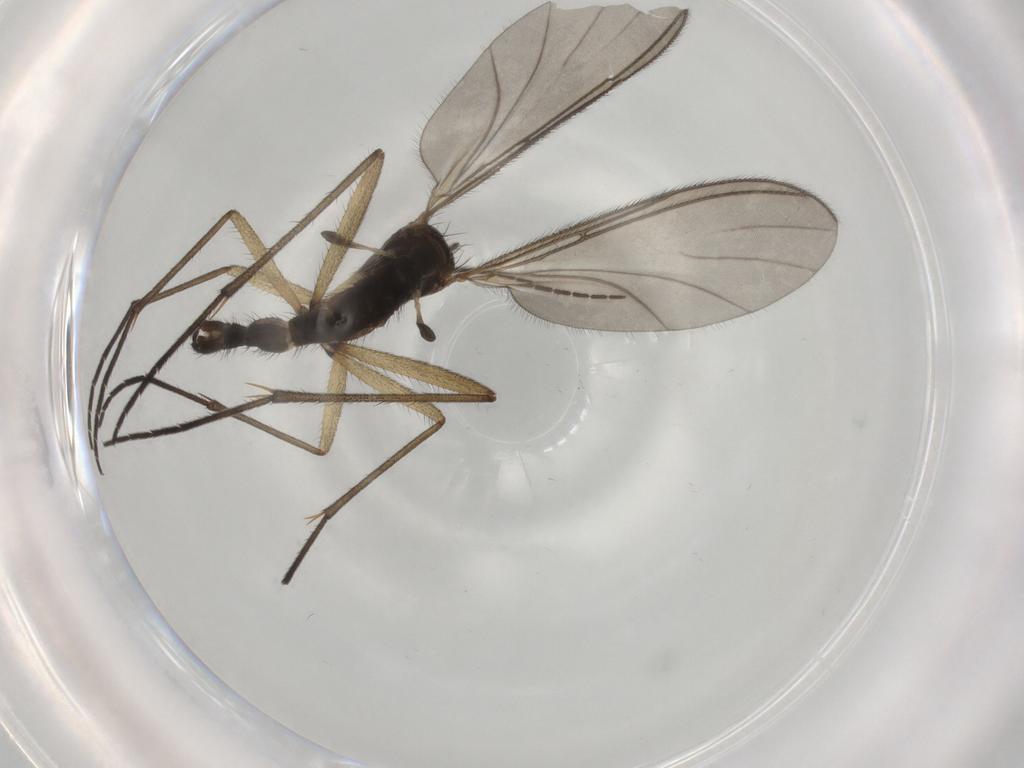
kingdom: Animalia
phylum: Arthropoda
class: Insecta
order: Diptera
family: Sciaridae
